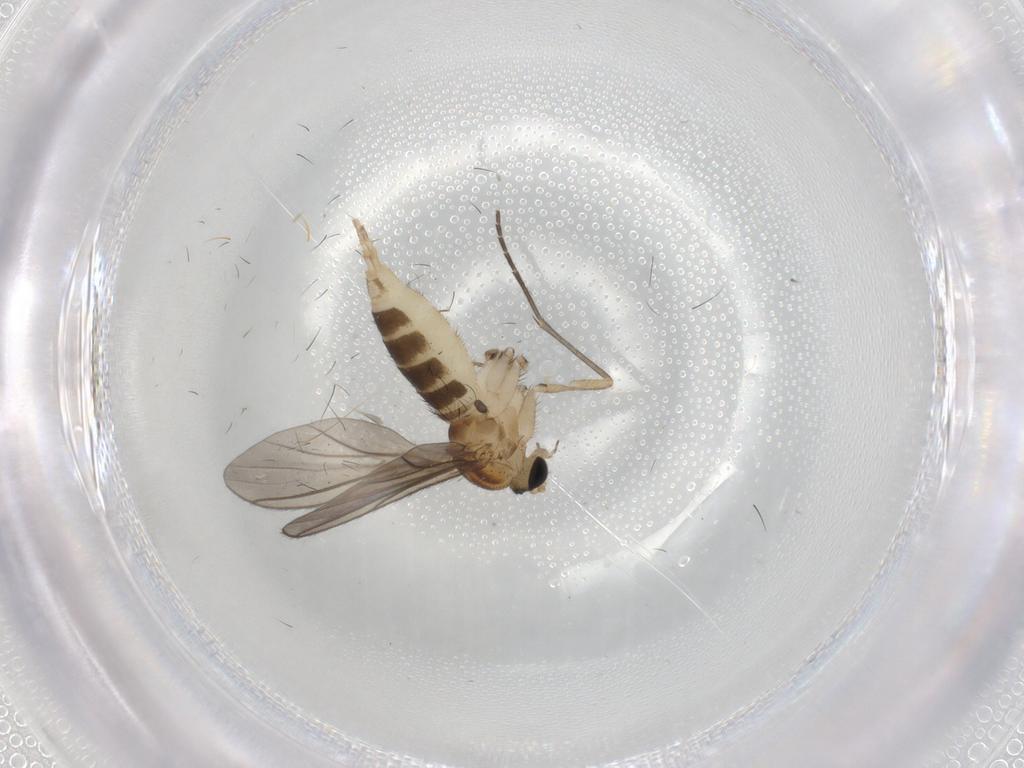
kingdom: Animalia
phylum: Arthropoda
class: Insecta
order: Diptera
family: Sciaridae
